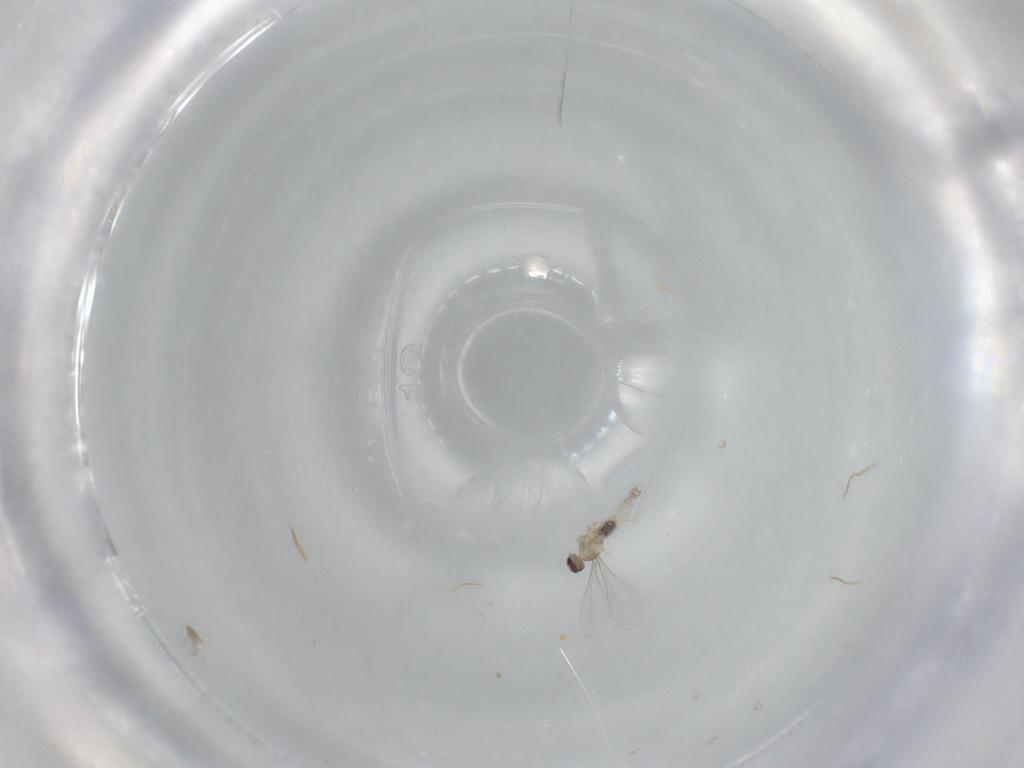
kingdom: Animalia
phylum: Arthropoda
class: Insecta
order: Diptera
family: Cecidomyiidae
